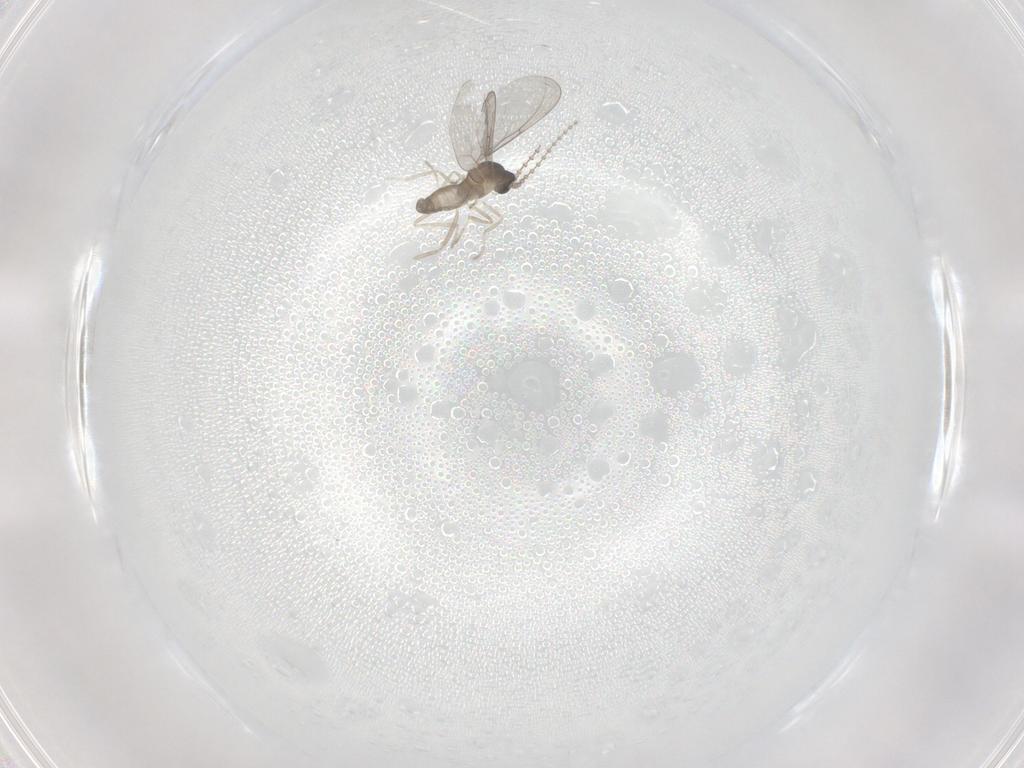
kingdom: Animalia
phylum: Arthropoda
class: Insecta
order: Diptera
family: Cecidomyiidae
